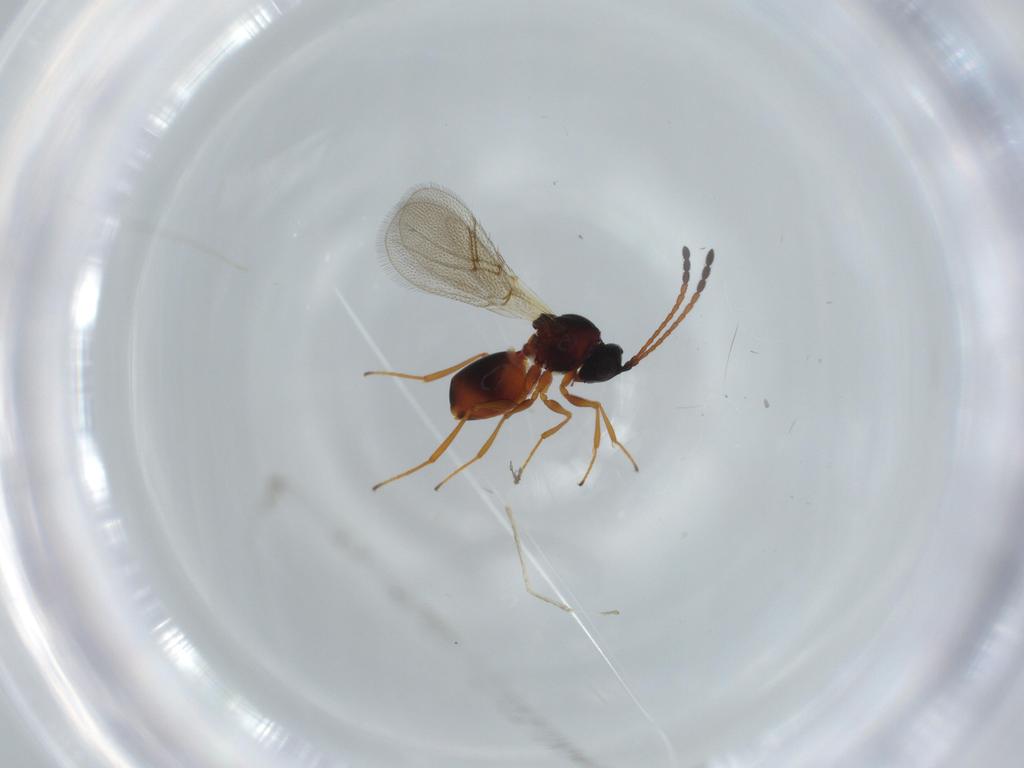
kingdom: Animalia
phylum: Arthropoda
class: Insecta
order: Hymenoptera
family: Figitidae
